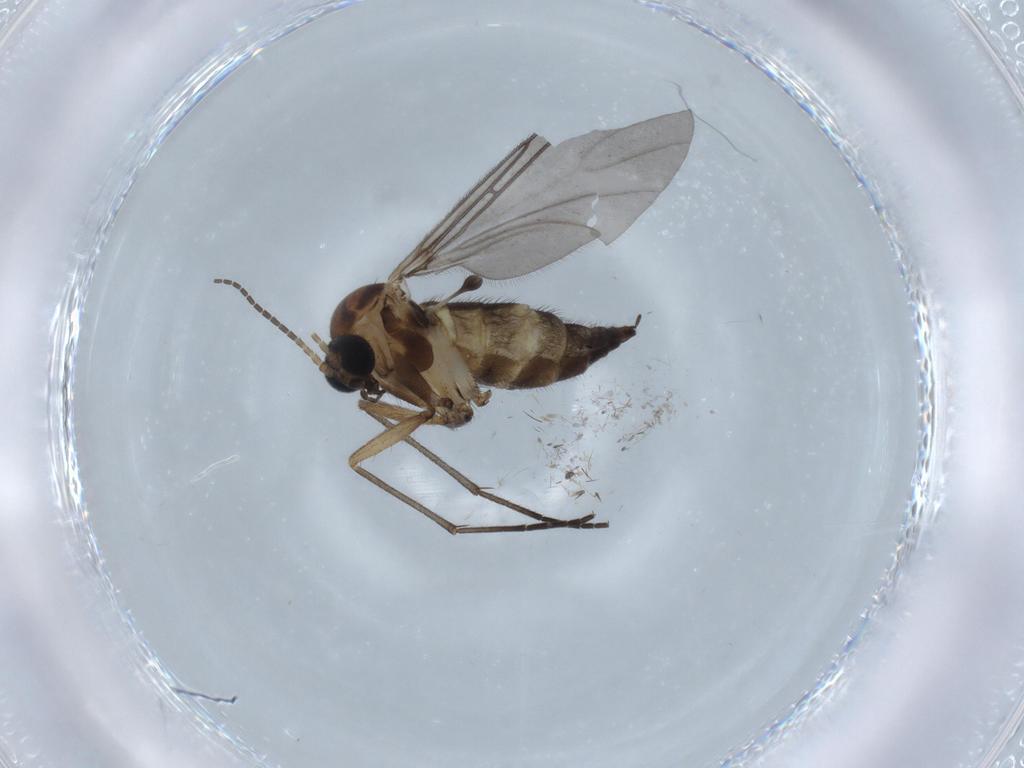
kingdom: Animalia
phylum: Arthropoda
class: Insecta
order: Diptera
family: Sciaridae
